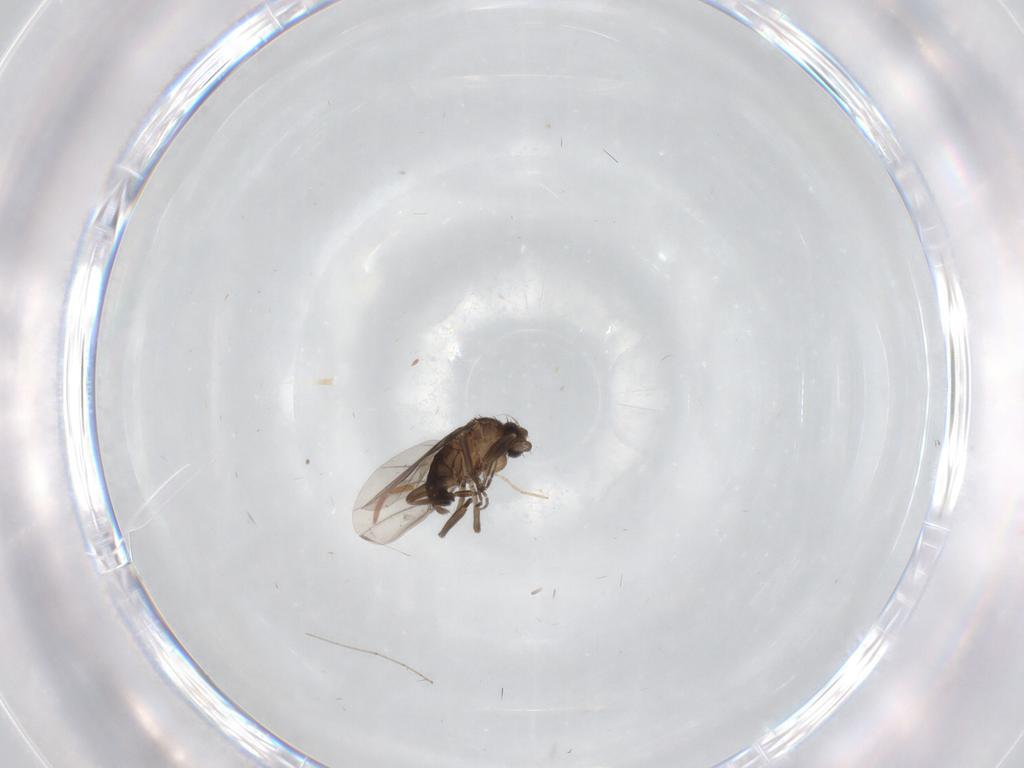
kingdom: Animalia
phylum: Arthropoda
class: Insecta
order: Diptera
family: Chironomidae
